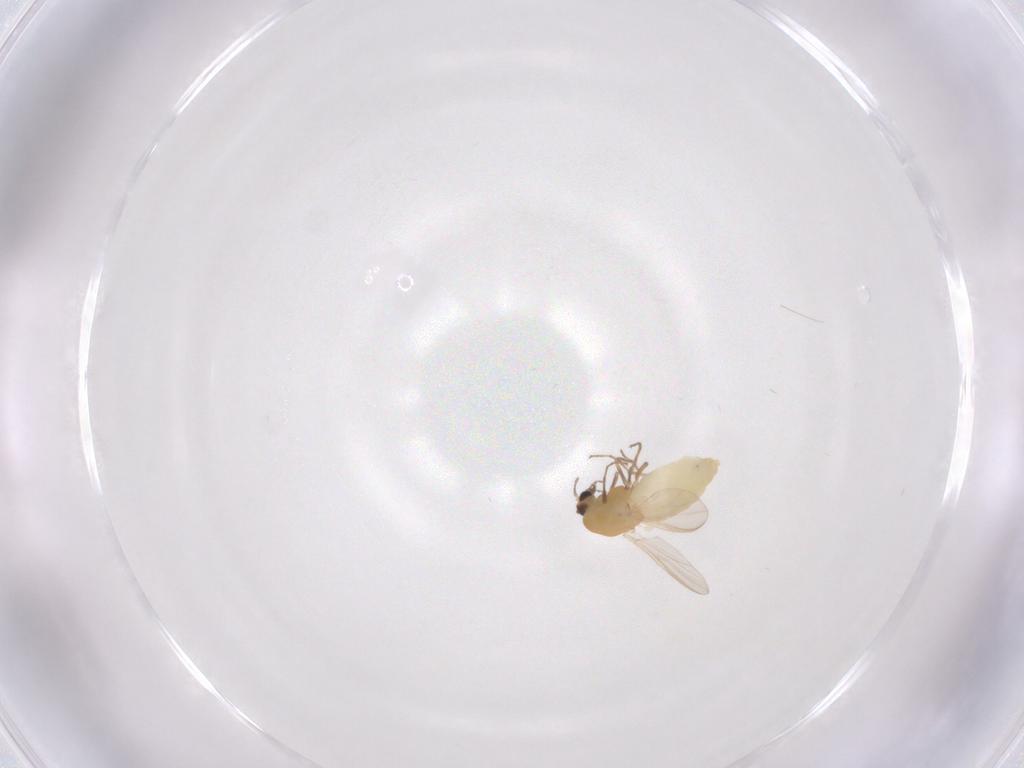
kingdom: Animalia
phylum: Arthropoda
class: Insecta
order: Diptera
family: Chironomidae
